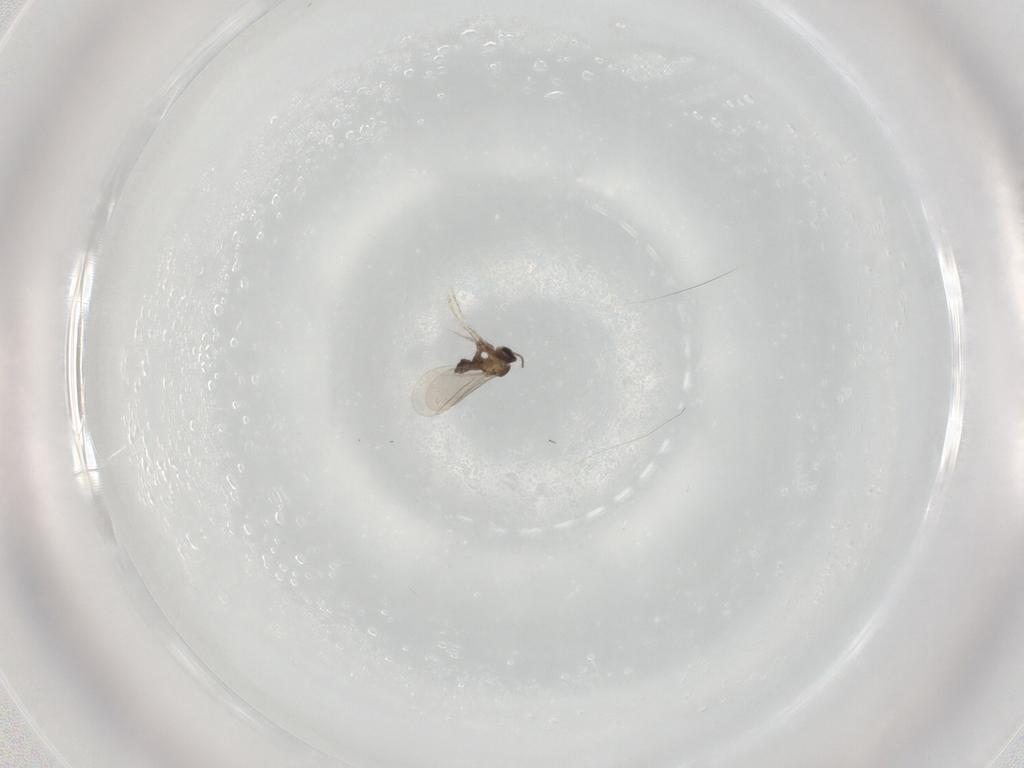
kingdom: Animalia
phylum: Arthropoda
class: Insecta
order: Diptera
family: Cecidomyiidae
